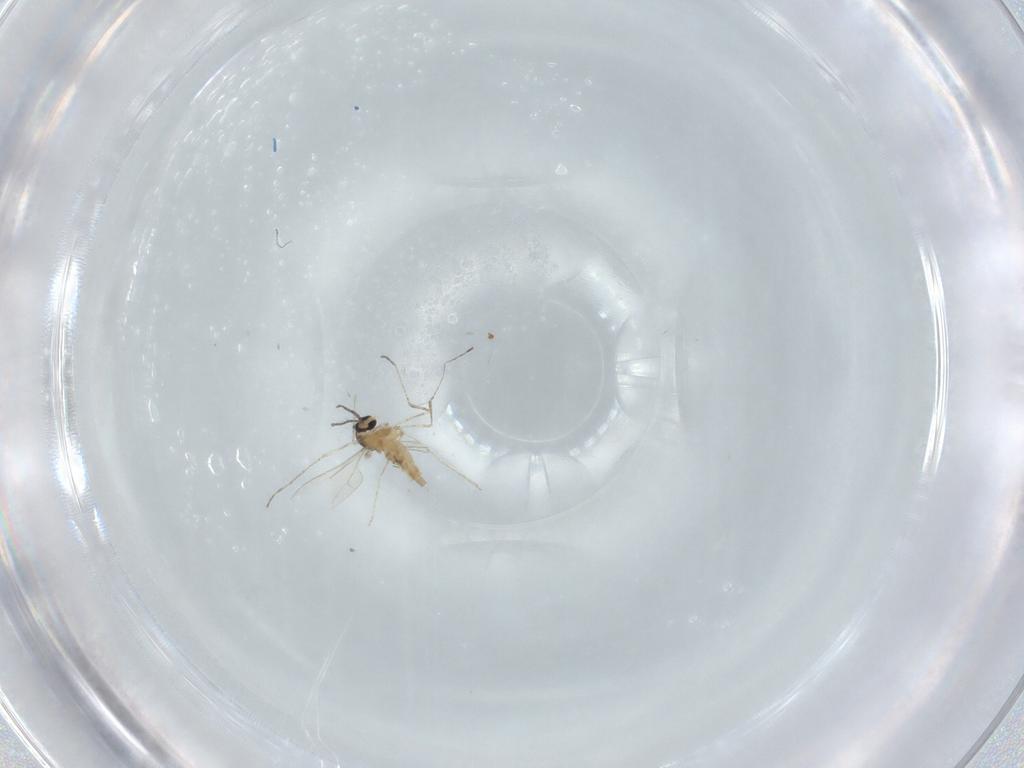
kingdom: Animalia
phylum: Arthropoda
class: Insecta
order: Diptera
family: Cecidomyiidae
